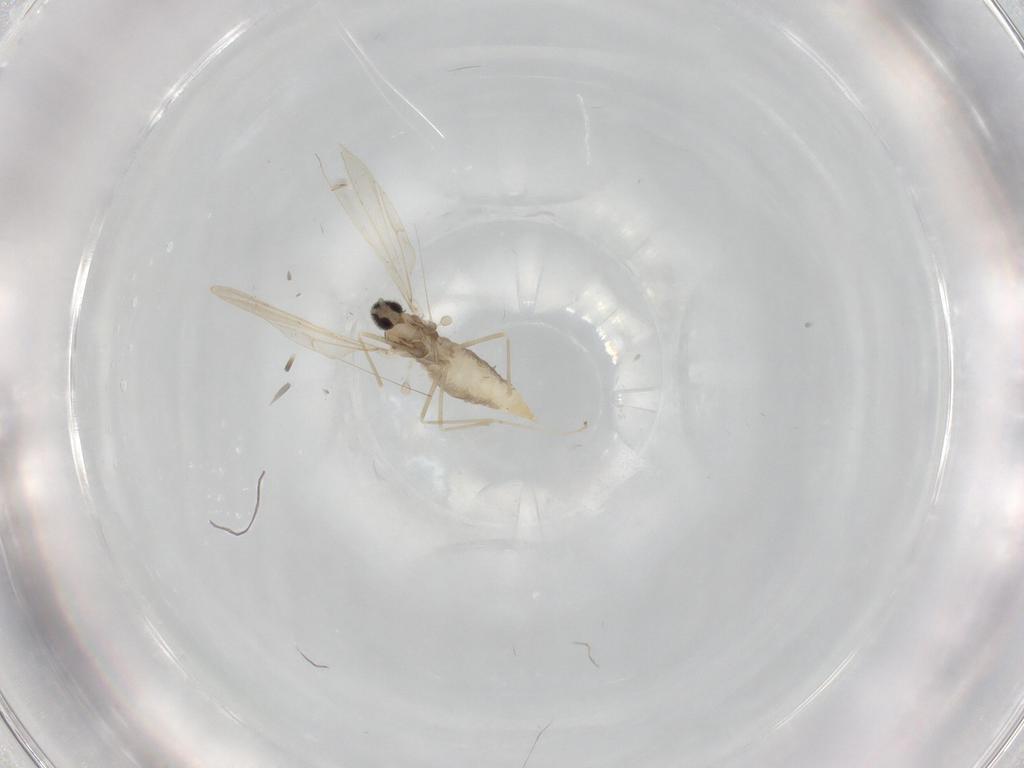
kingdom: Animalia
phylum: Arthropoda
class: Insecta
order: Diptera
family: Cecidomyiidae
